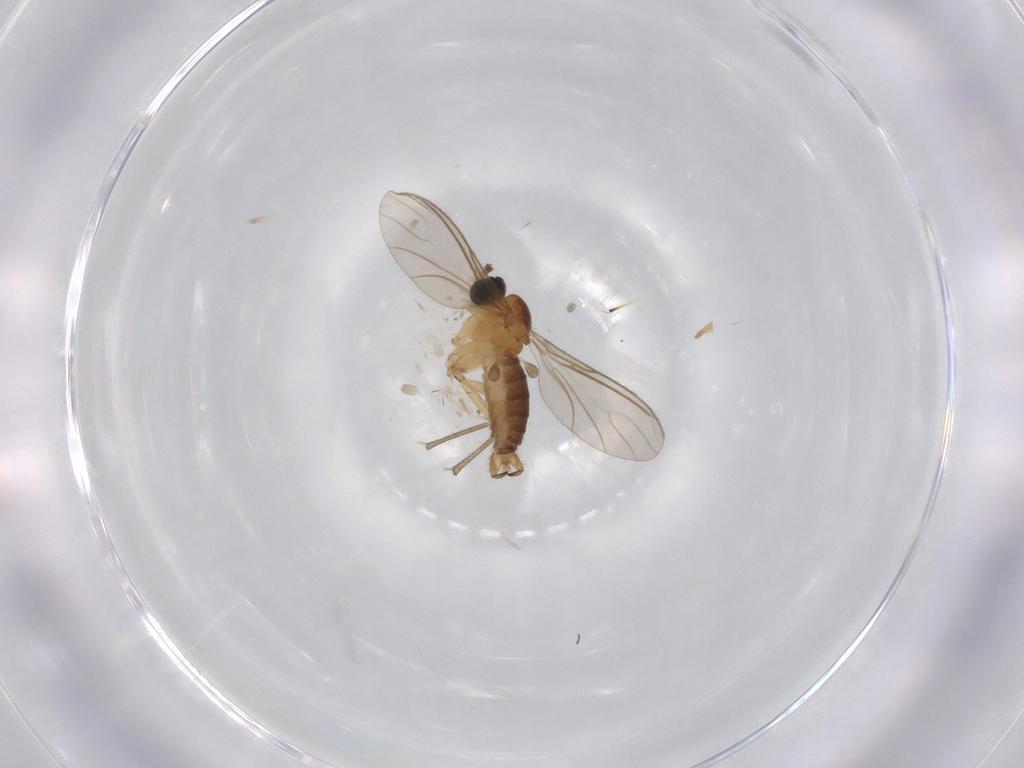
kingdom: Animalia
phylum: Arthropoda
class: Insecta
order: Diptera
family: Sciaridae
